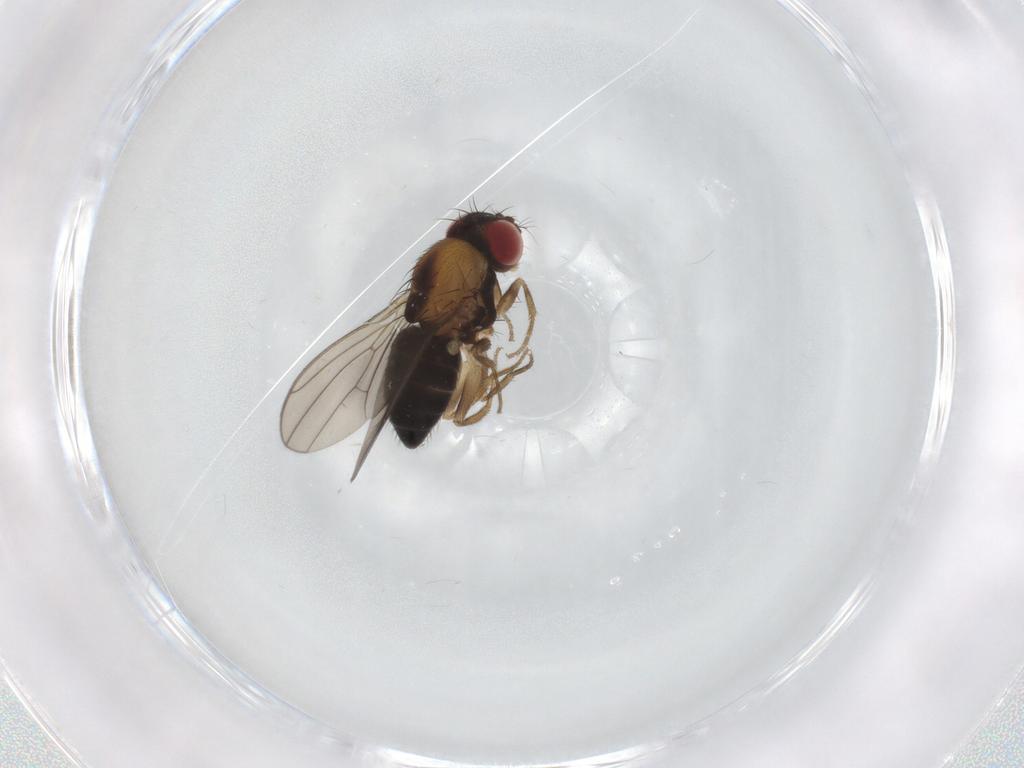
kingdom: Animalia
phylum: Arthropoda
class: Insecta
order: Diptera
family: Drosophilidae
